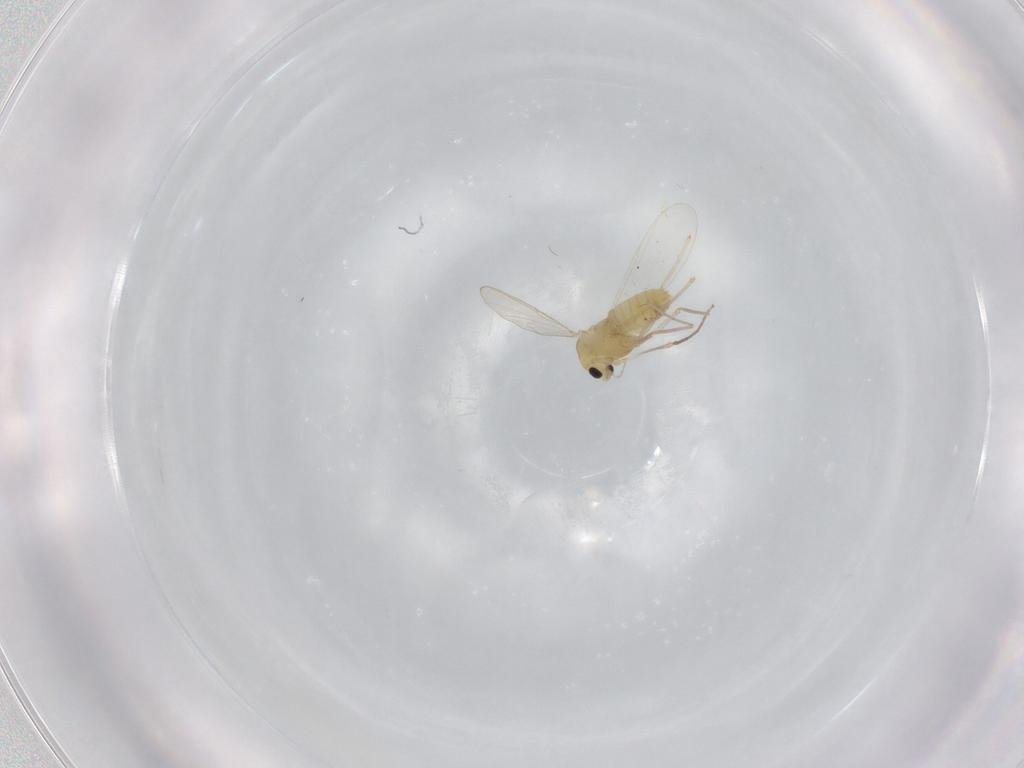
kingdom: Animalia
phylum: Arthropoda
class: Insecta
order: Diptera
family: Chironomidae
